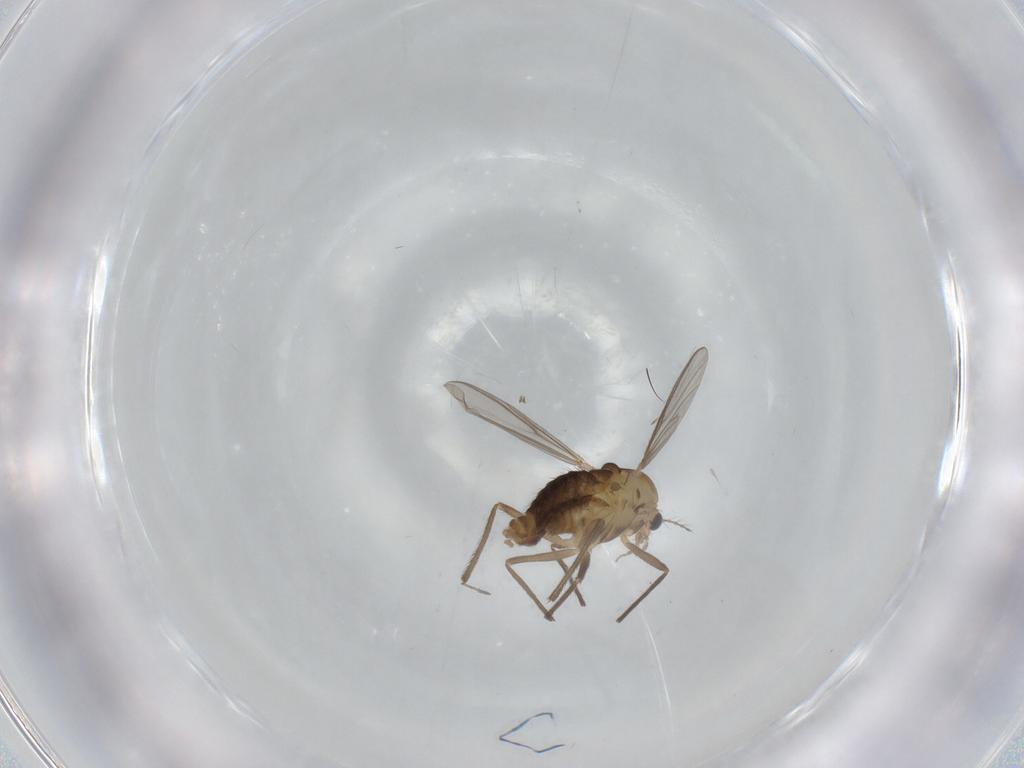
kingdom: Animalia
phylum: Arthropoda
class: Insecta
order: Diptera
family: Chironomidae
